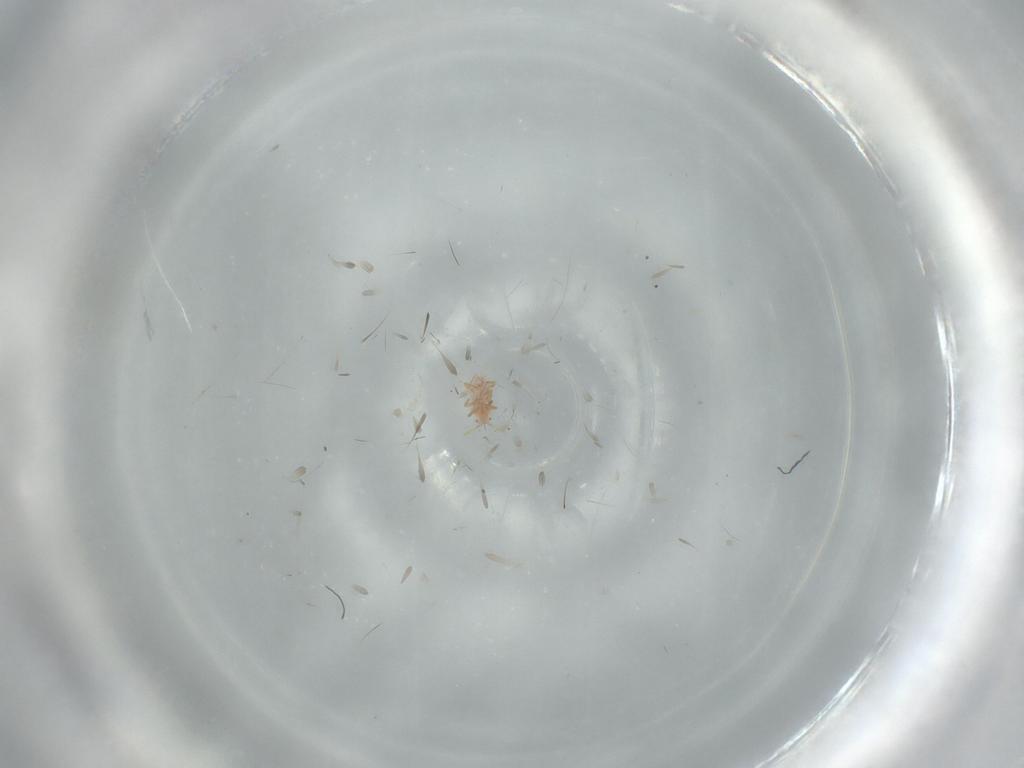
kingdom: Animalia
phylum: Arthropoda
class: Insecta
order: Hemiptera
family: Cercopidae
